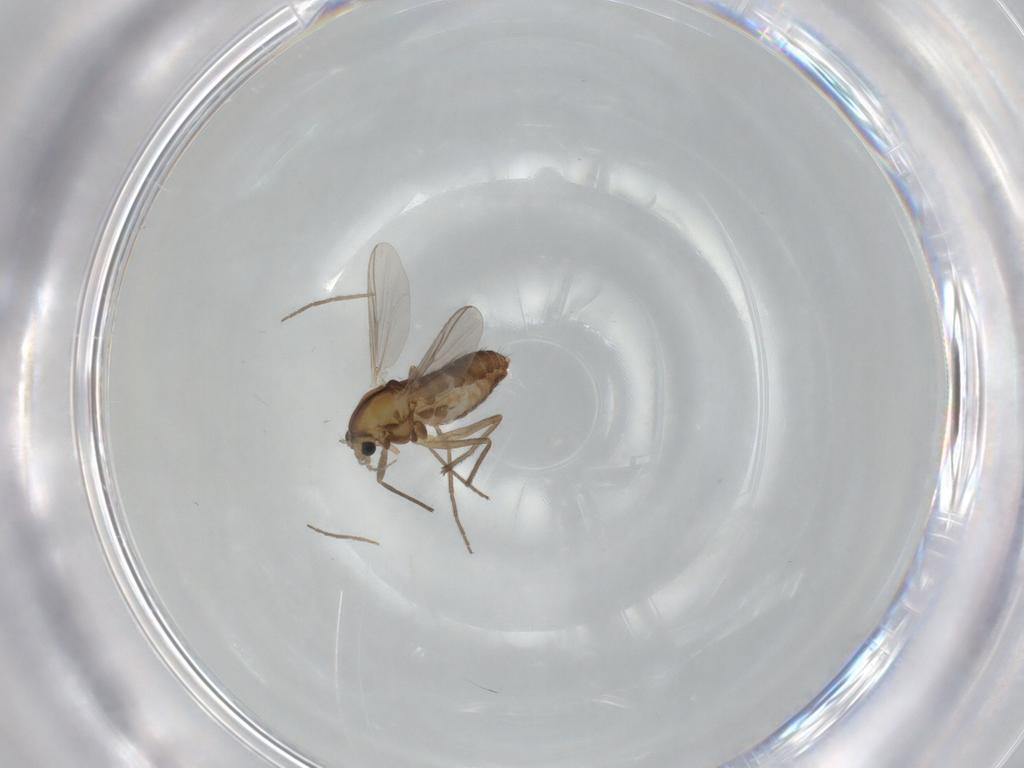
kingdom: Animalia
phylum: Arthropoda
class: Insecta
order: Diptera
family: Chironomidae
